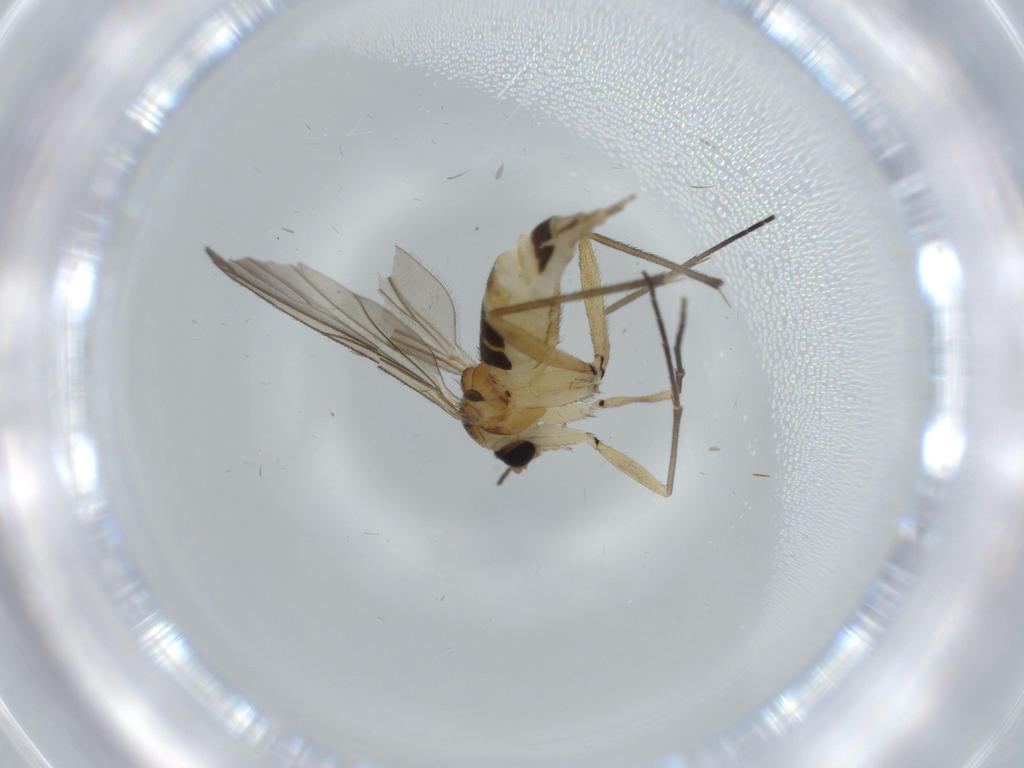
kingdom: Animalia
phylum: Arthropoda
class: Insecta
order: Diptera
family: Sciaridae
